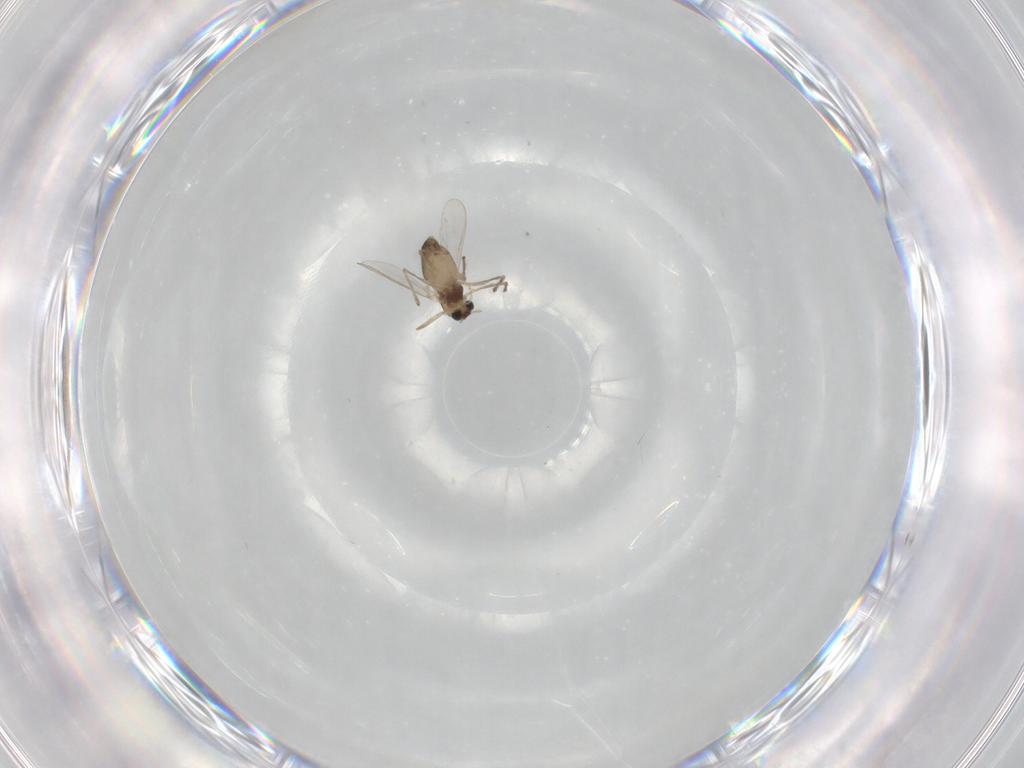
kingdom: Animalia
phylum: Arthropoda
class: Insecta
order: Diptera
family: Chironomidae
